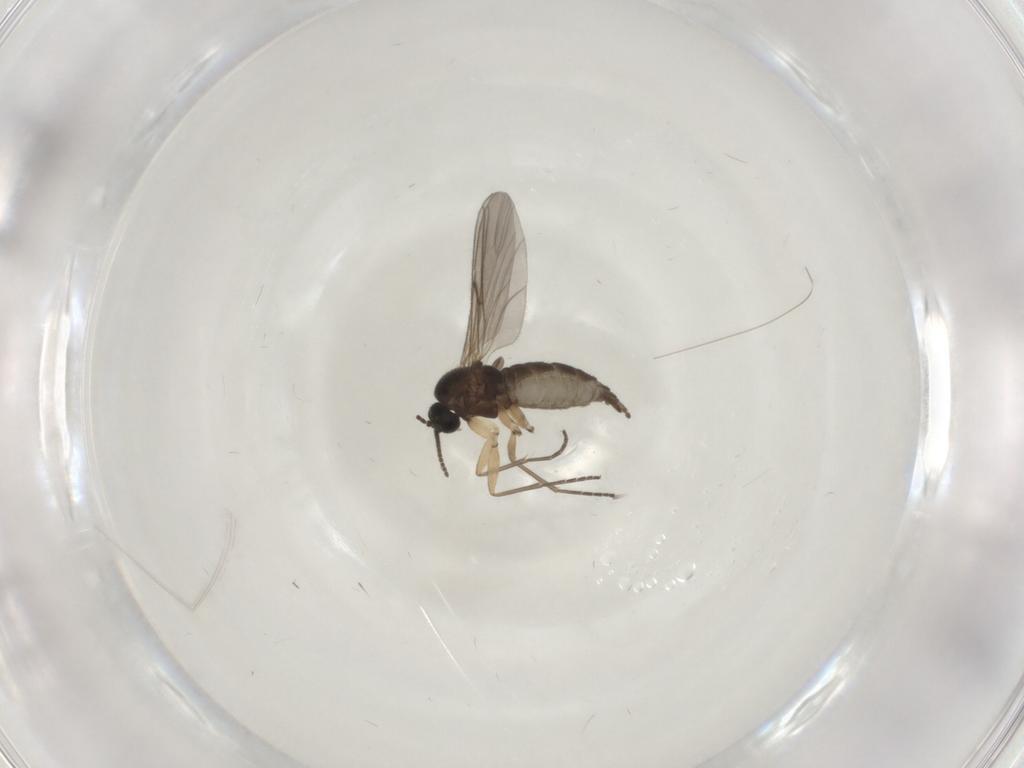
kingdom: Animalia
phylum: Arthropoda
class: Insecta
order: Diptera
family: Sciaridae
